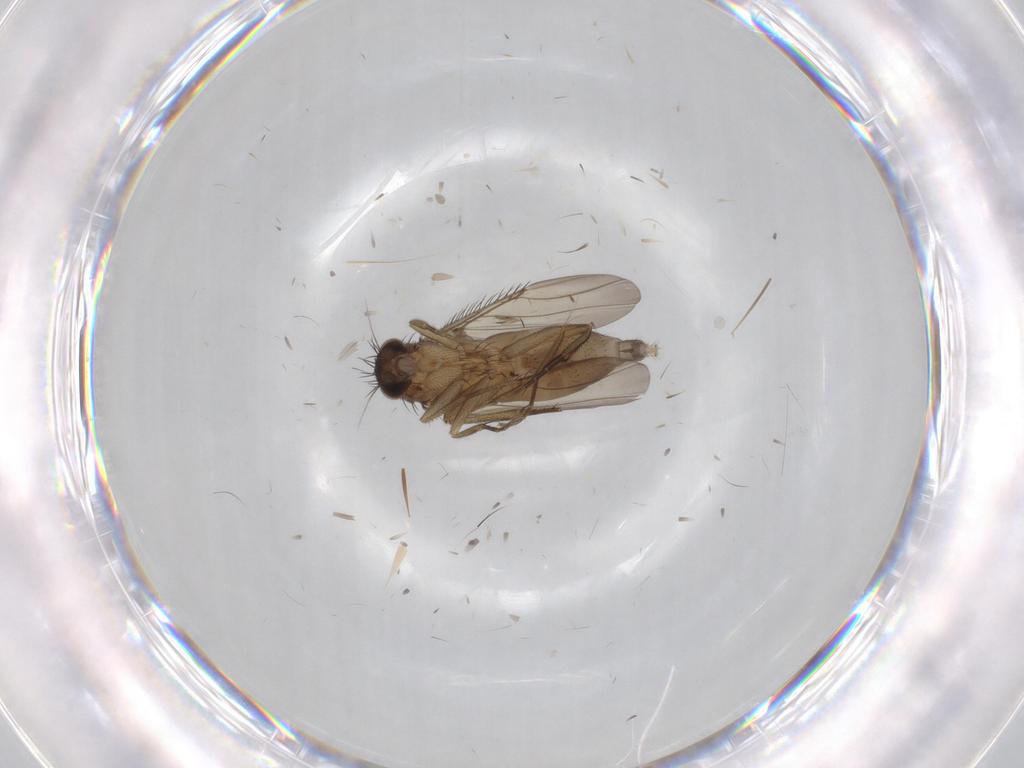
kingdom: Animalia
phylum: Arthropoda
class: Insecta
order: Diptera
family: Phoridae
